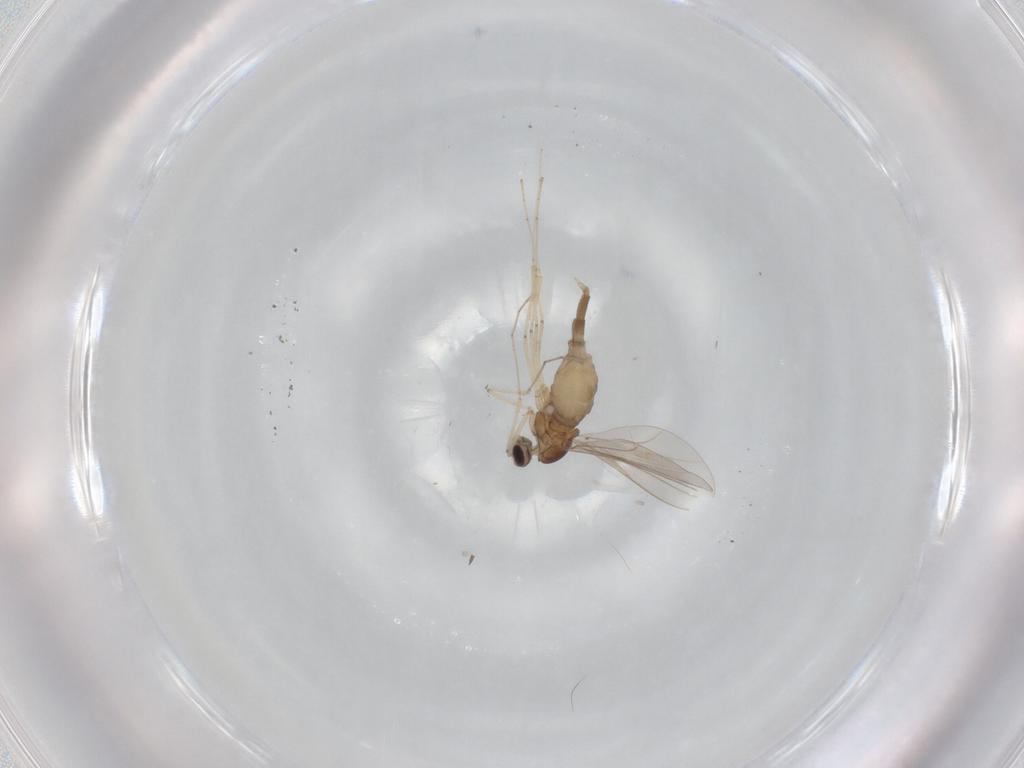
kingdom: Animalia
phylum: Arthropoda
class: Insecta
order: Diptera
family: Cecidomyiidae
